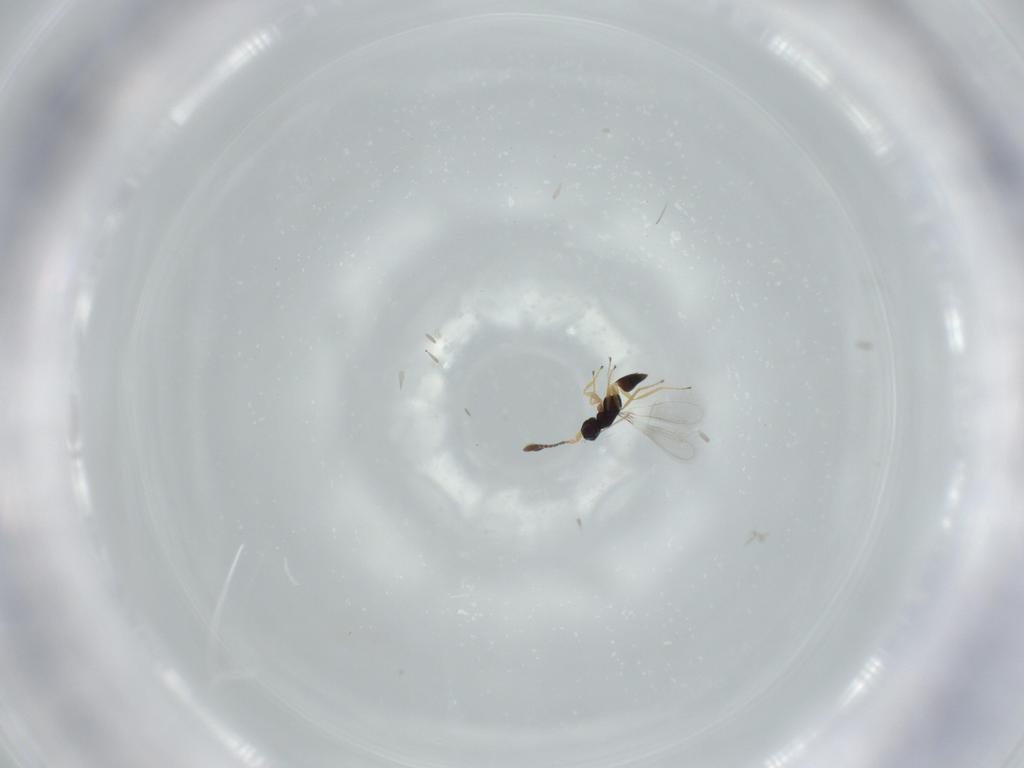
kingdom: Animalia
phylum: Arthropoda
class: Insecta
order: Hymenoptera
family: Mymaridae
